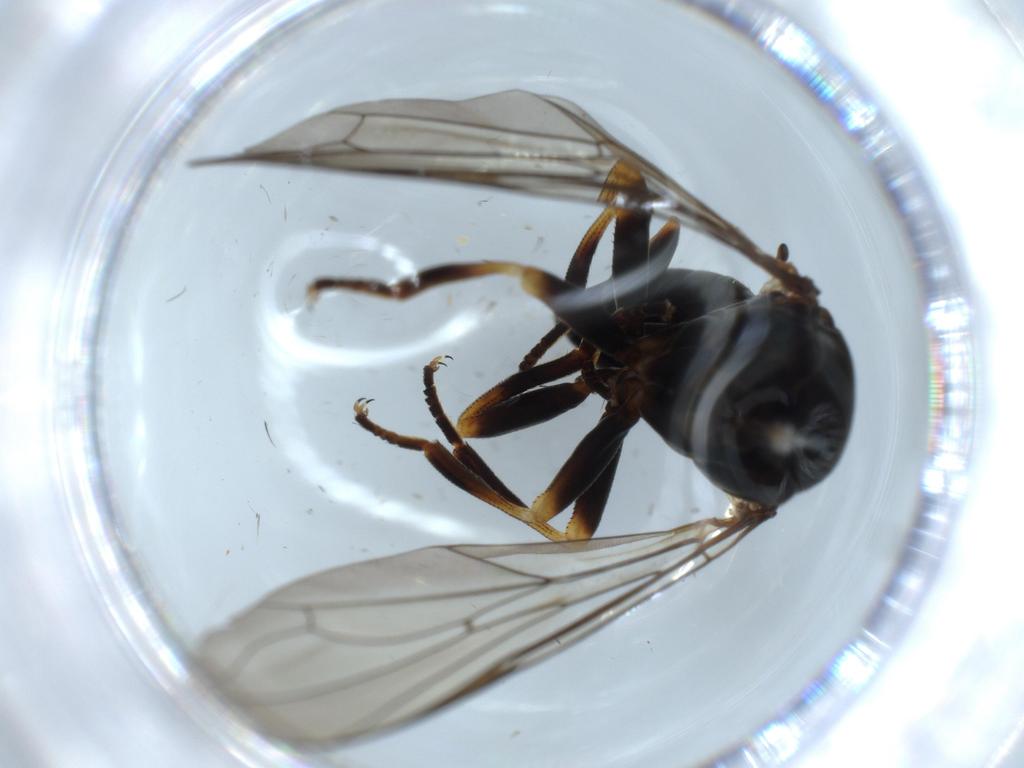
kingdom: Animalia
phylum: Arthropoda
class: Insecta
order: Diptera
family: Pipunculidae
